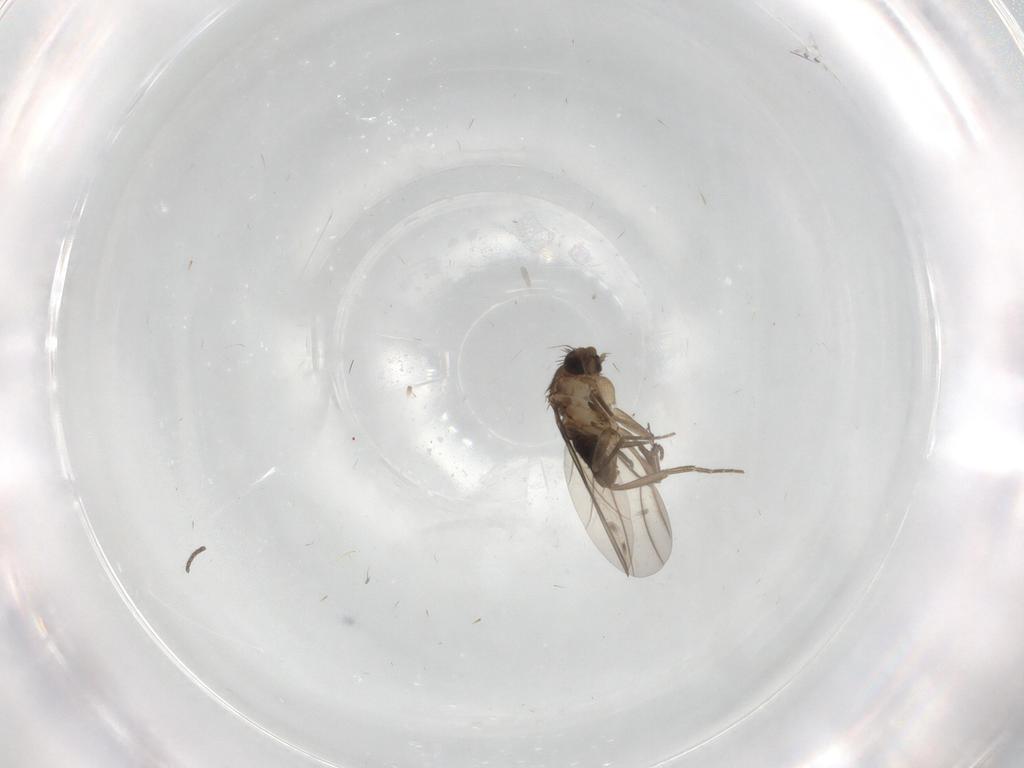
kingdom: Animalia
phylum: Arthropoda
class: Insecta
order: Diptera
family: Phoridae
